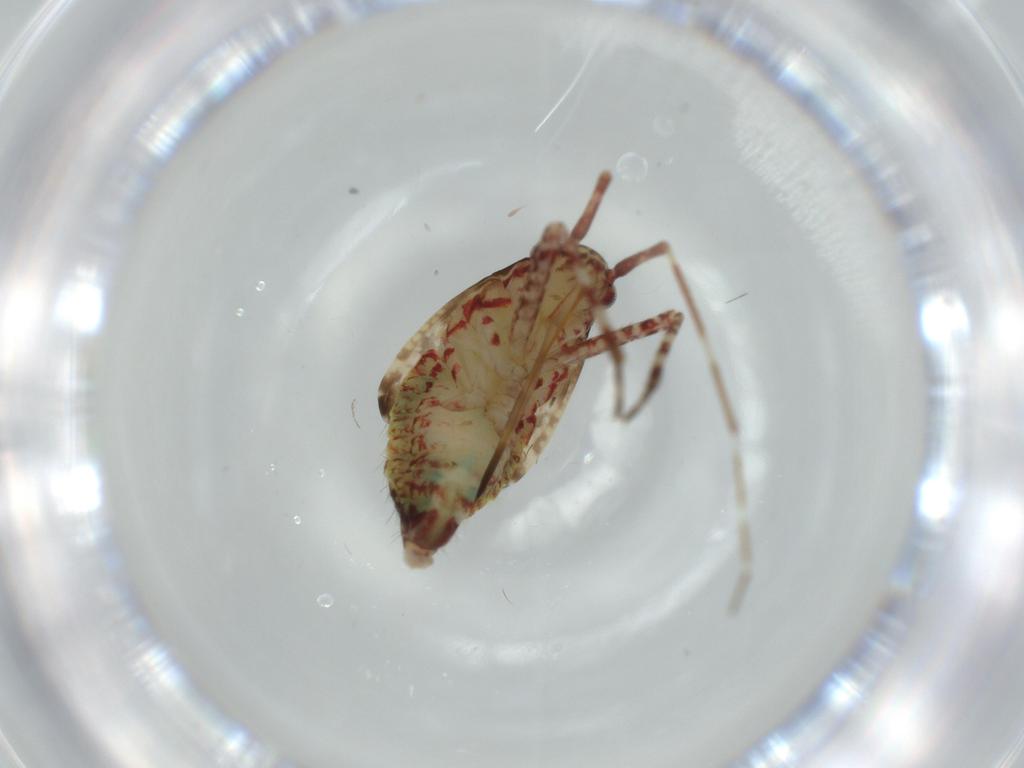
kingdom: Animalia
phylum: Arthropoda
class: Insecta
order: Hemiptera
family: Miridae
